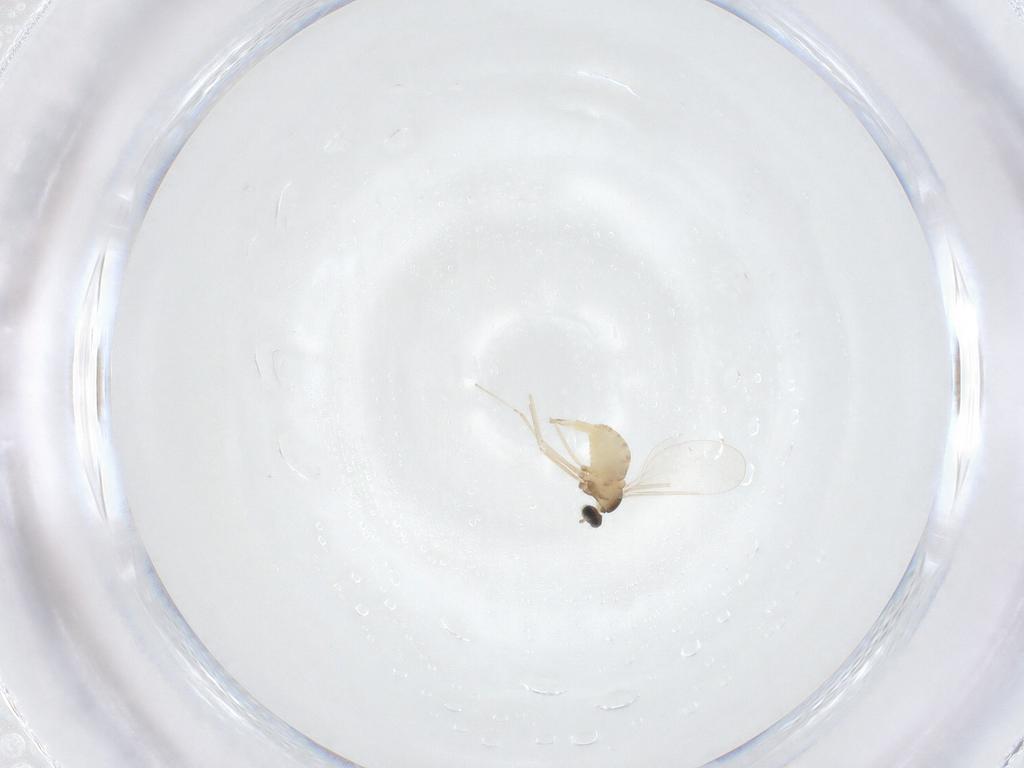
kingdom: Animalia
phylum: Arthropoda
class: Insecta
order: Diptera
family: Cecidomyiidae
